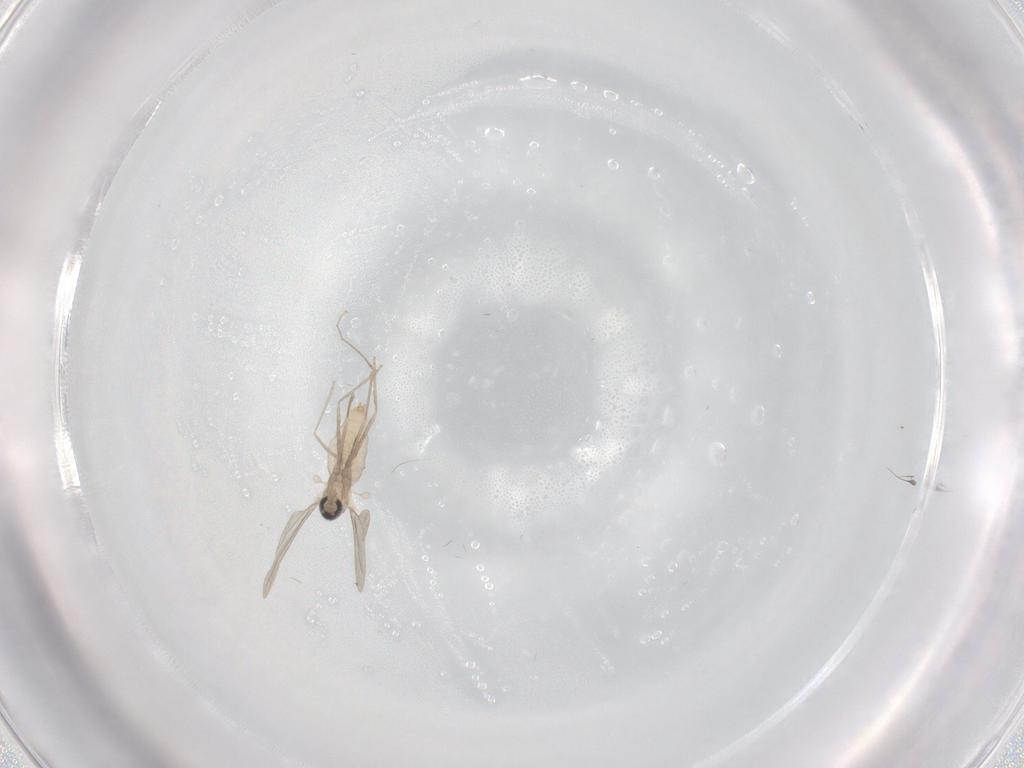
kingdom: Animalia
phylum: Arthropoda
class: Insecta
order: Diptera
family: Cecidomyiidae
